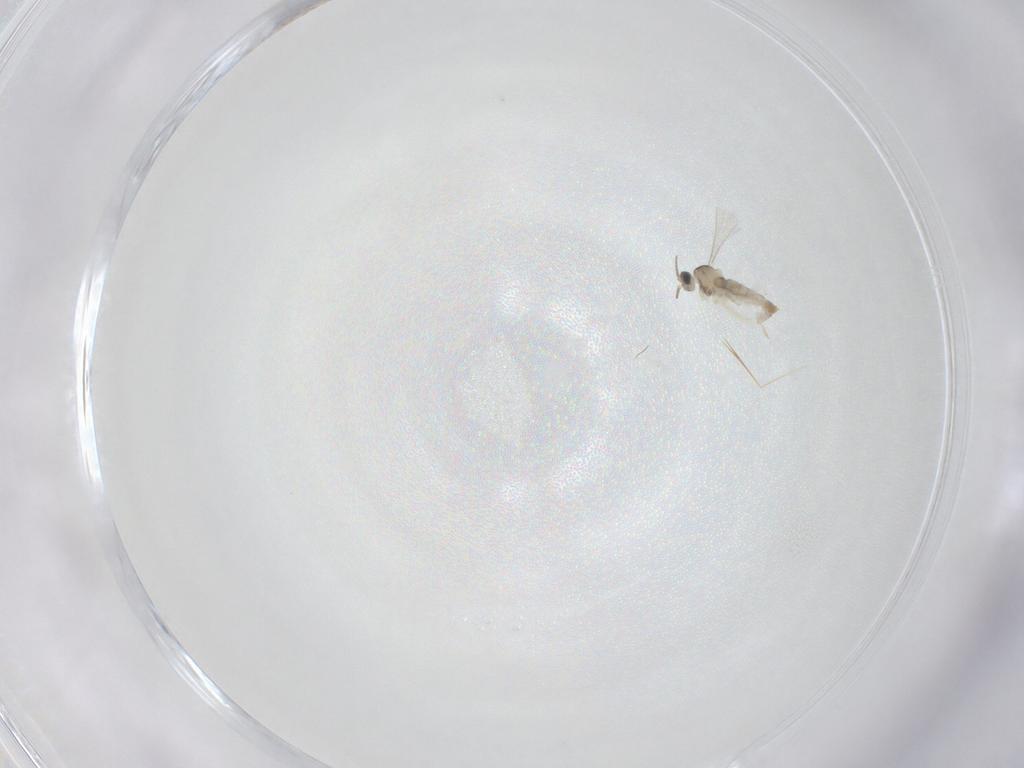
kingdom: Animalia
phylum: Arthropoda
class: Insecta
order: Diptera
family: Cecidomyiidae
